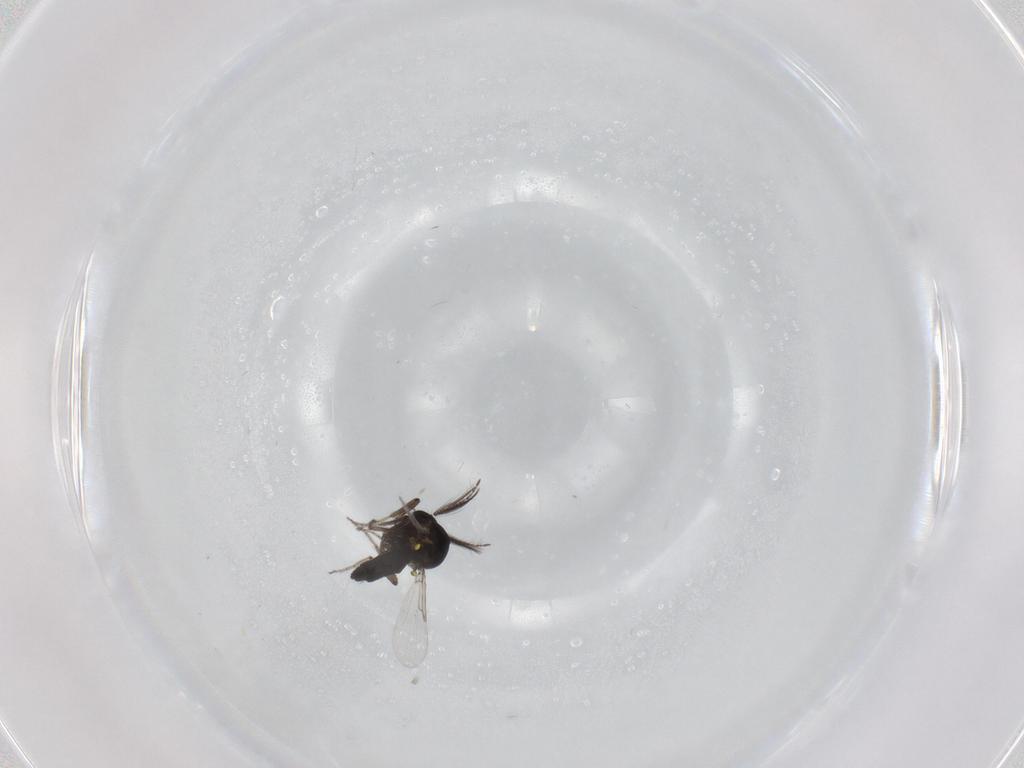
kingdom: Animalia
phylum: Arthropoda
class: Insecta
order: Diptera
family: Ceratopogonidae
